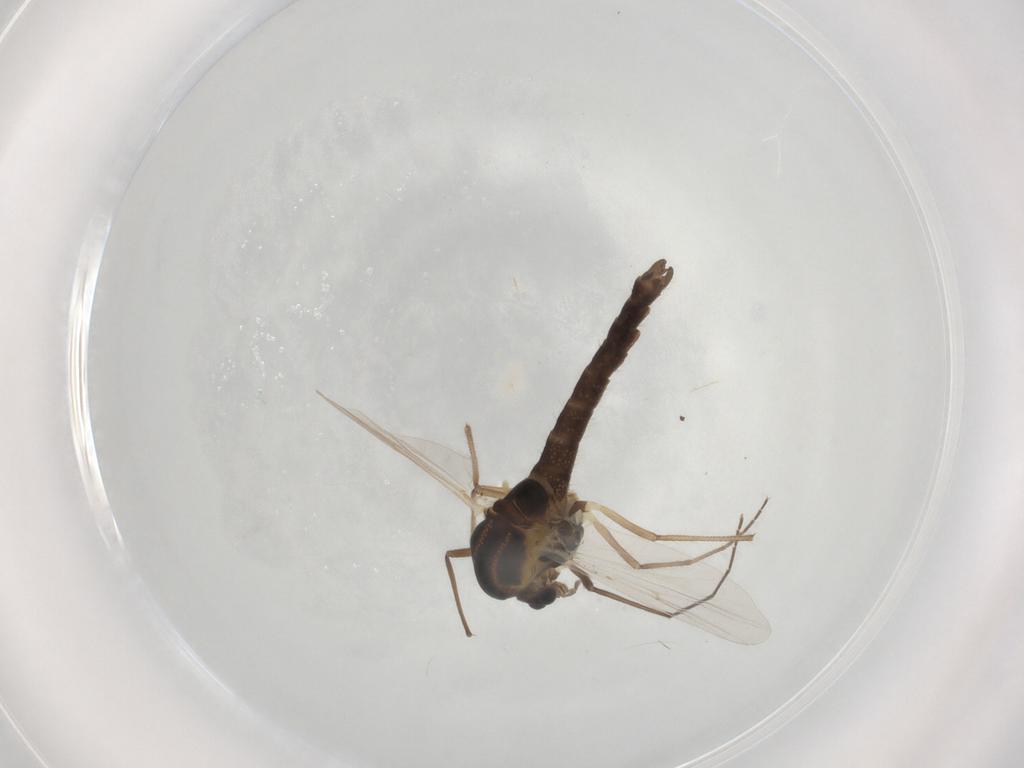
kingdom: Animalia
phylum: Arthropoda
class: Insecta
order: Diptera
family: Ceratopogonidae
